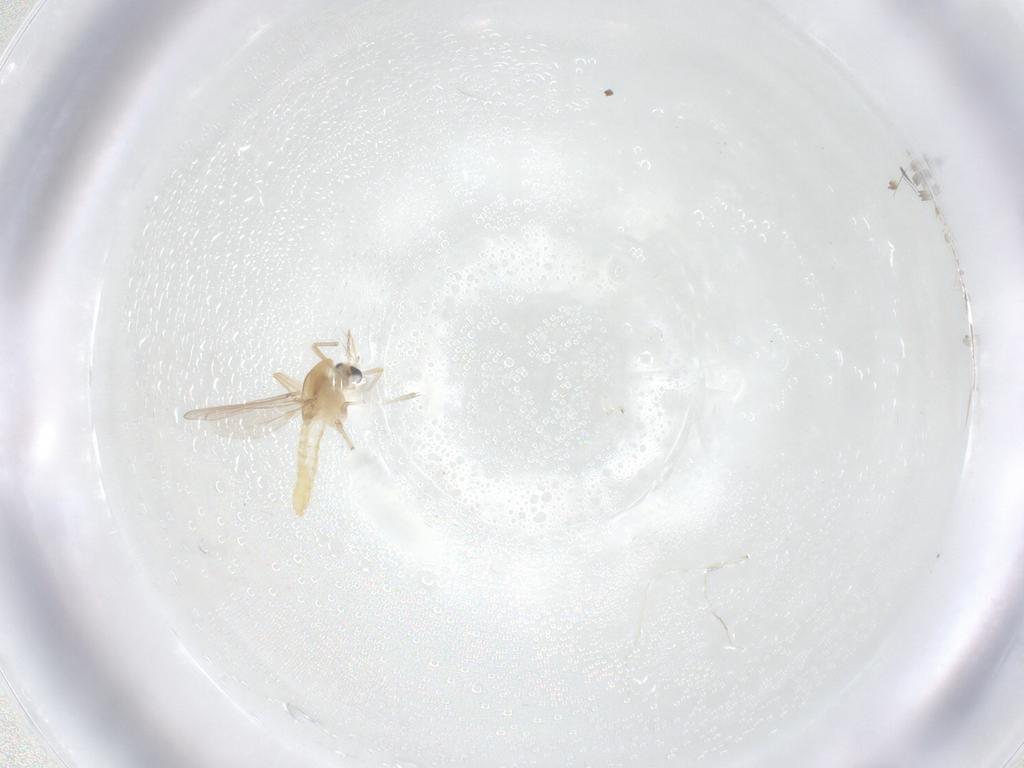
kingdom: Animalia
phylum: Arthropoda
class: Insecta
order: Diptera
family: Chironomidae
